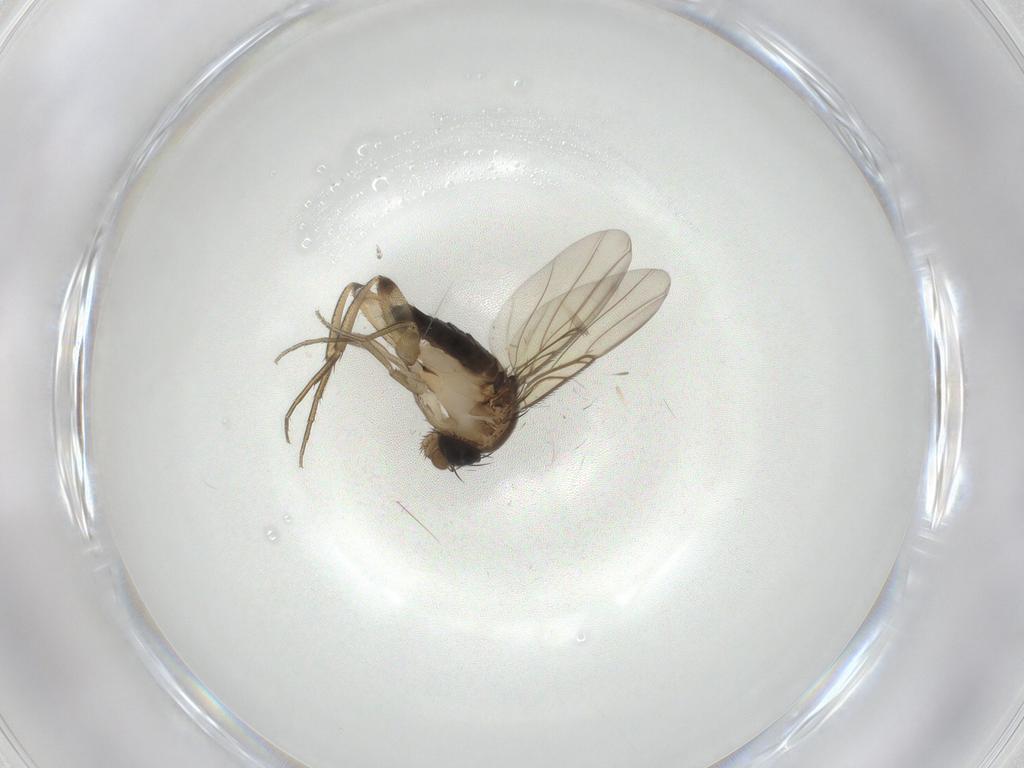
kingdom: Animalia
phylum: Arthropoda
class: Insecta
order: Diptera
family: Phoridae
